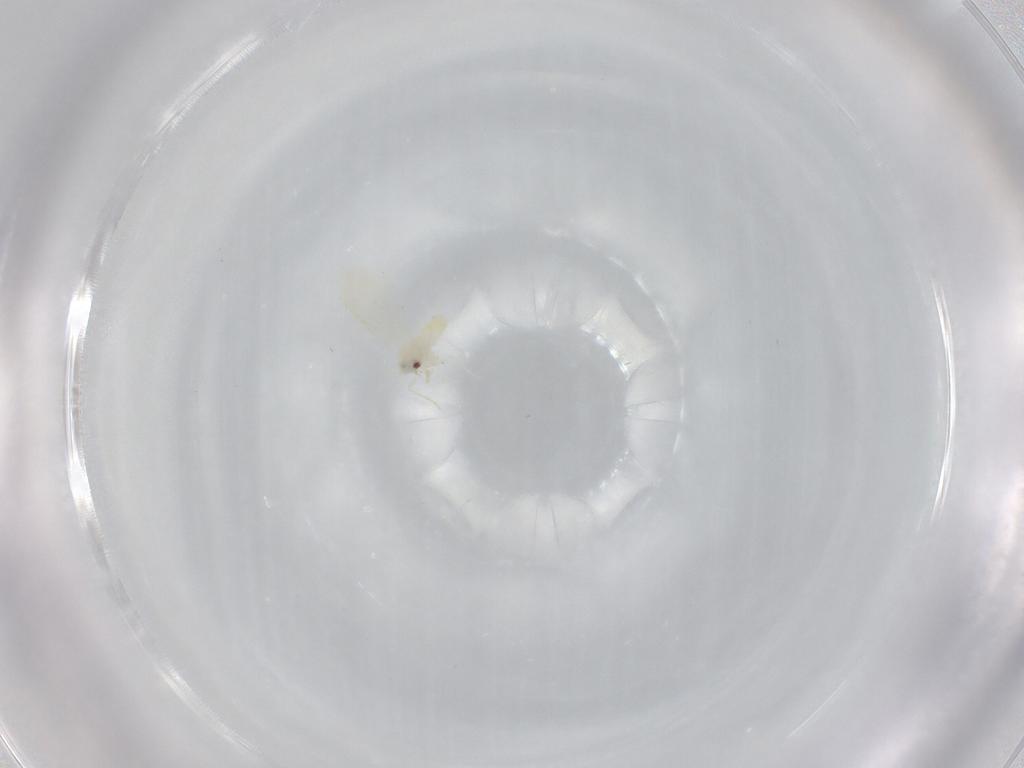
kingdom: Animalia
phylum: Arthropoda
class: Insecta
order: Hemiptera
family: Aleyrodidae
